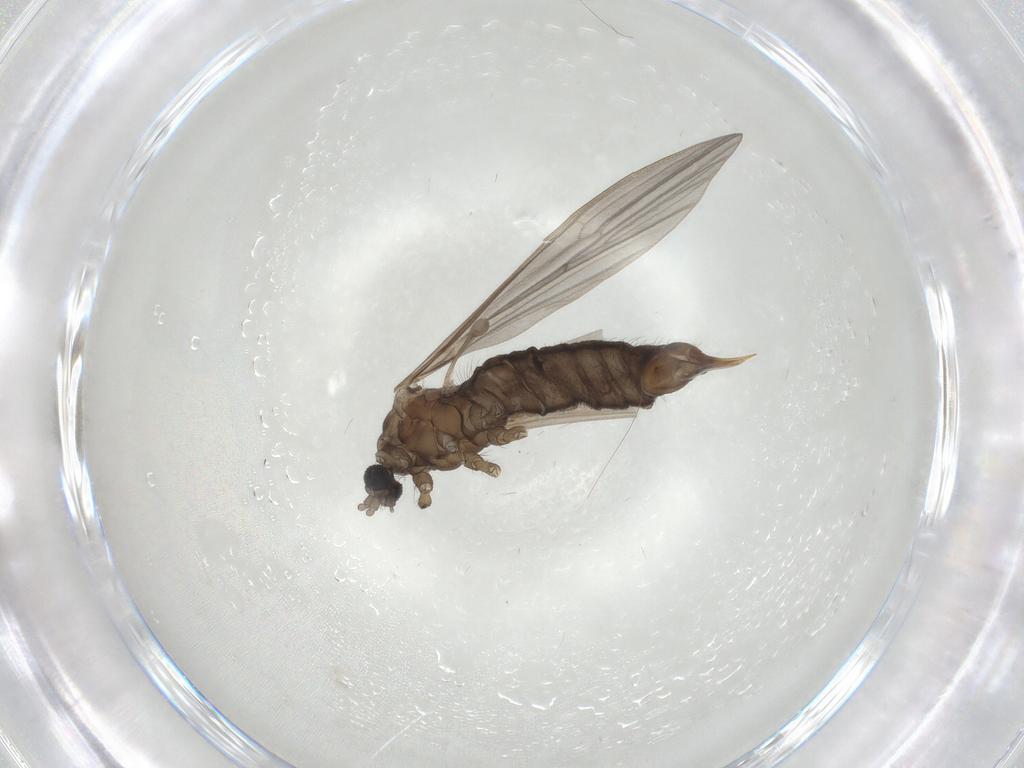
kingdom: Animalia
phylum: Arthropoda
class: Insecta
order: Diptera
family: Limoniidae
